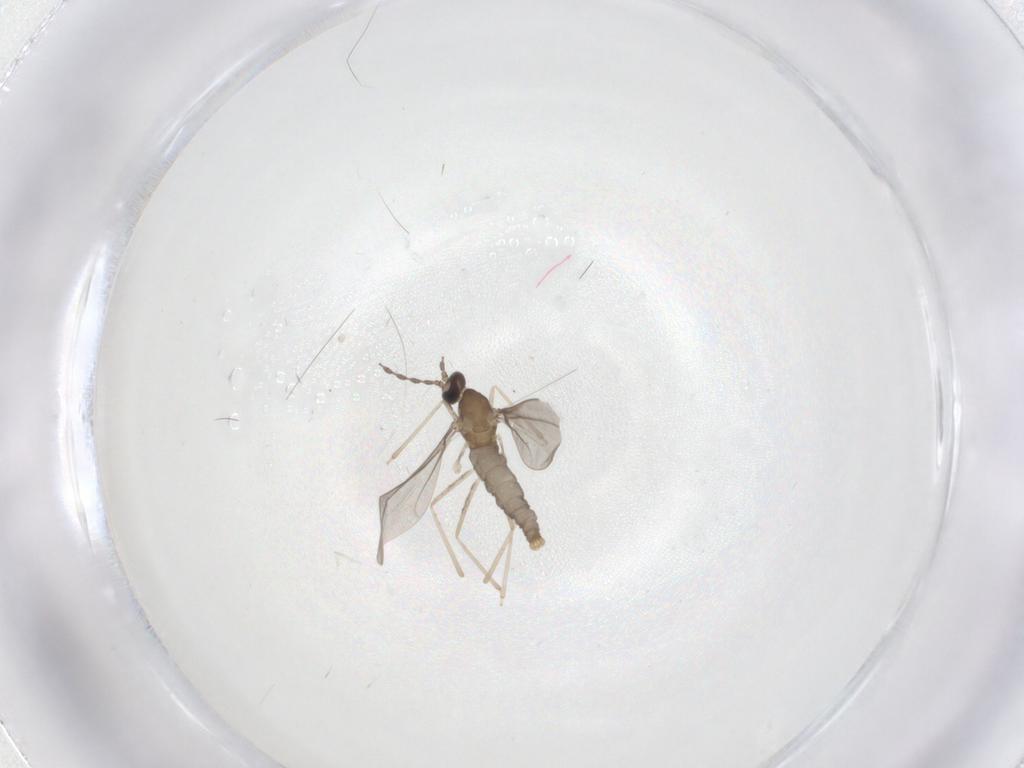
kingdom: Animalia
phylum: Arthropoda
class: Insecta
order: Diptera
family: Cecidomyiidae
